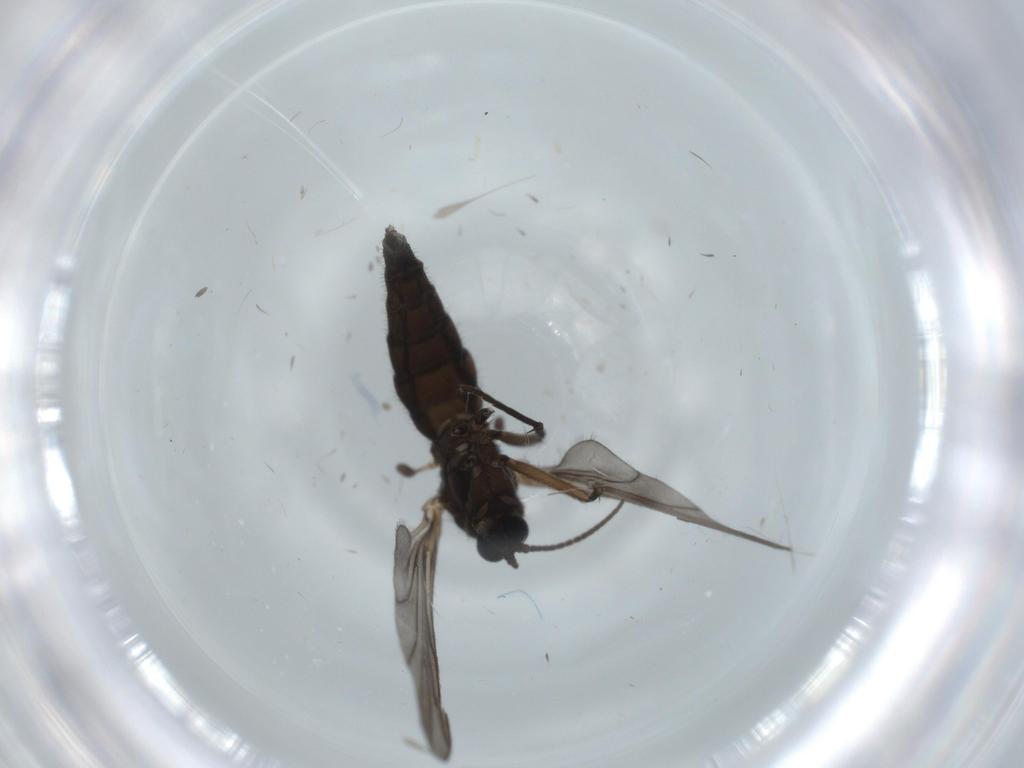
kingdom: Animalia
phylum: Arthropoda
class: Insecta
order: Diptera
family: Sciaridae
